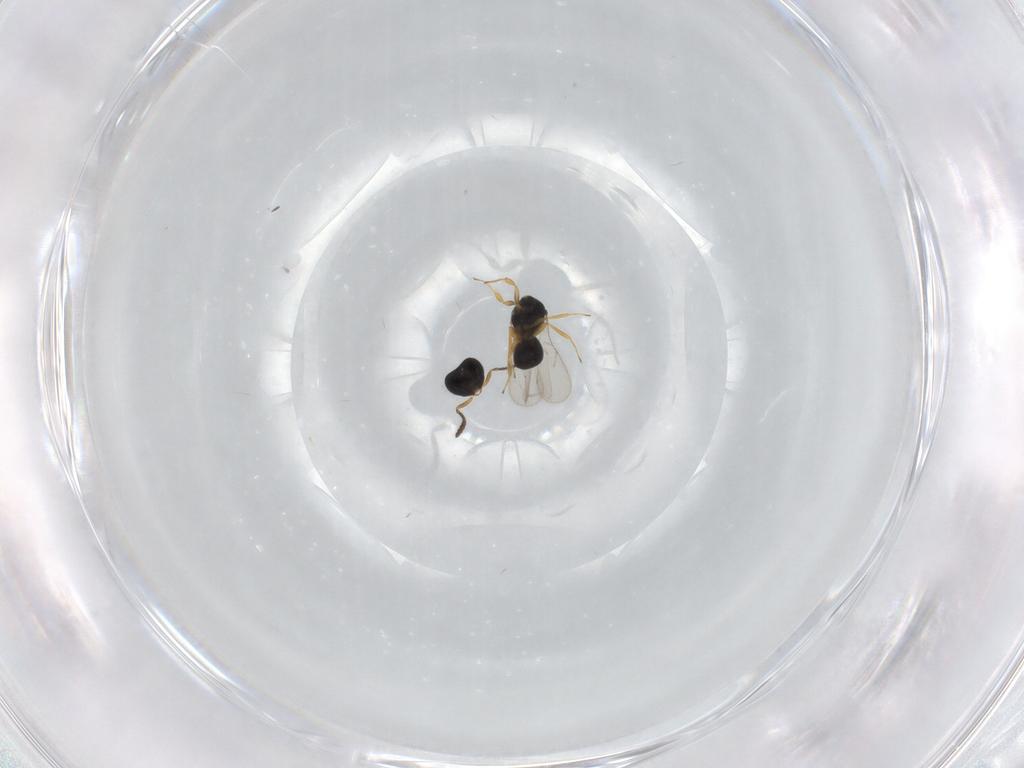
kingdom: Animalia
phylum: Arthropoda
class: Insecta
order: Hymenoptera
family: Scelionidae
